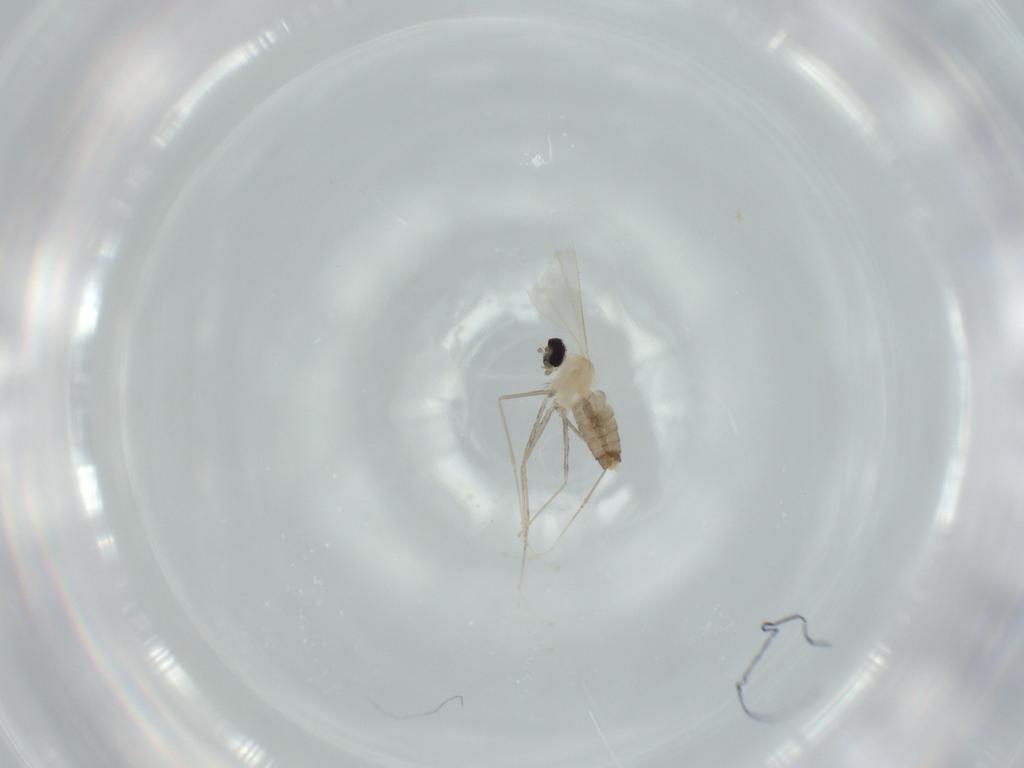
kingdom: Animalia
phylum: Arthropoda
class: Insecta
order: Diptera
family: Cecidomyiidae
